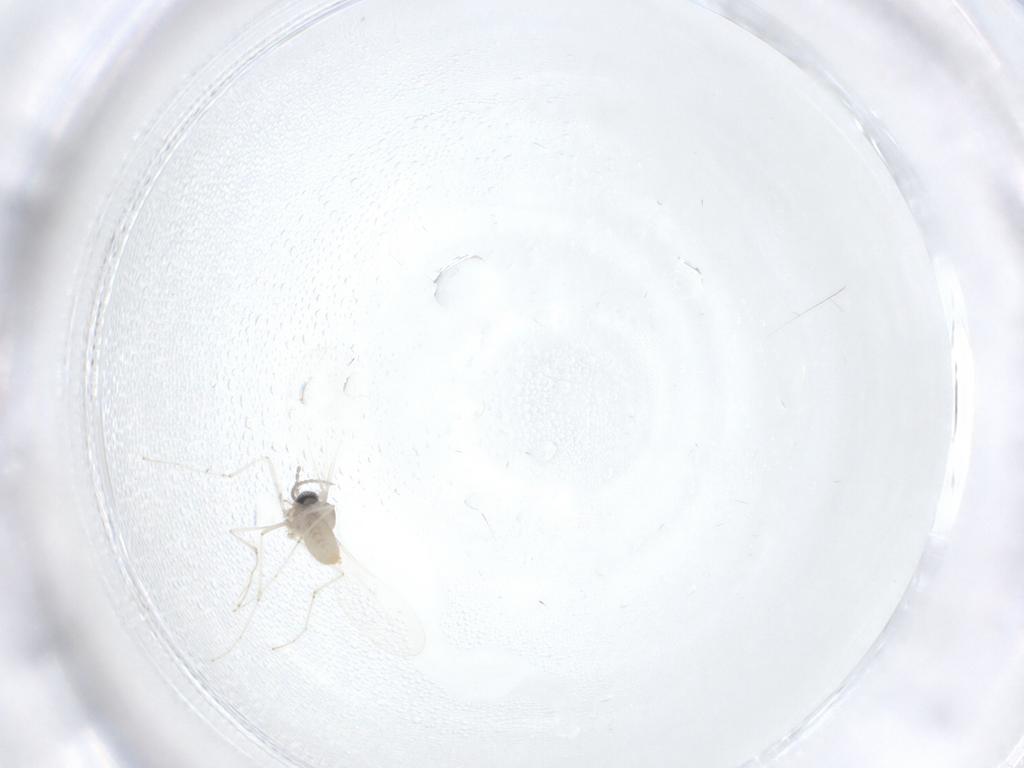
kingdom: Animalia
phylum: Arthropoda
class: Insecta
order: Diptera
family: Cecidomyiidae
